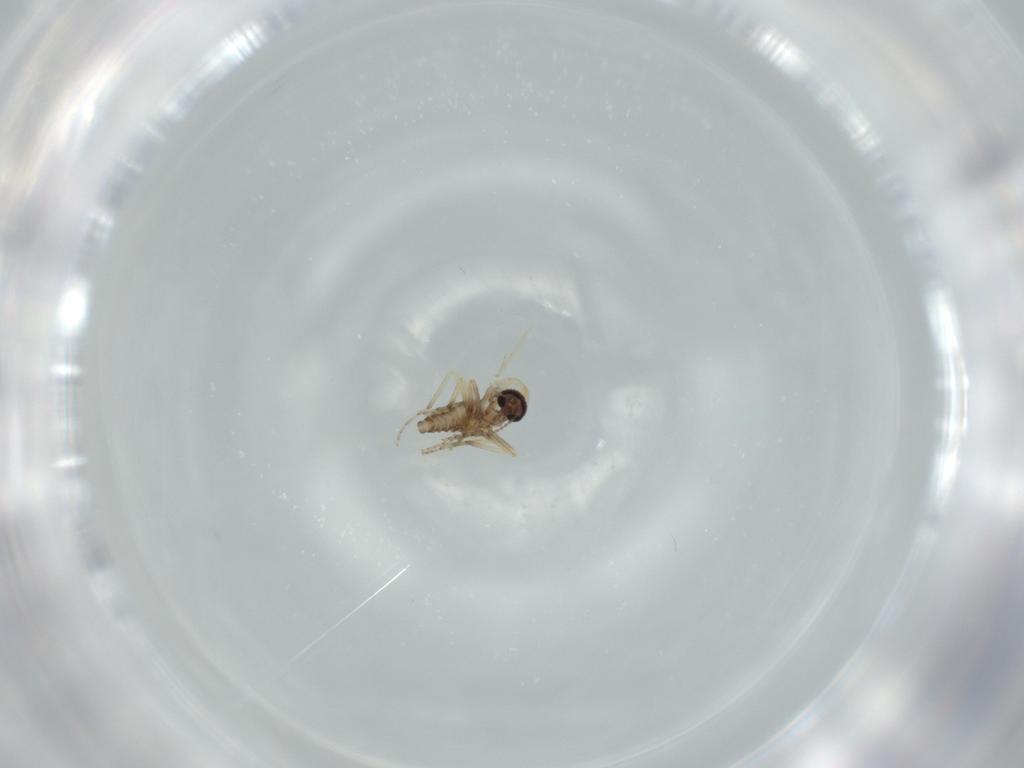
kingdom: Animalia
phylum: Arthropoda
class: Insecta
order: Diptera
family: Ceratopogonidae
